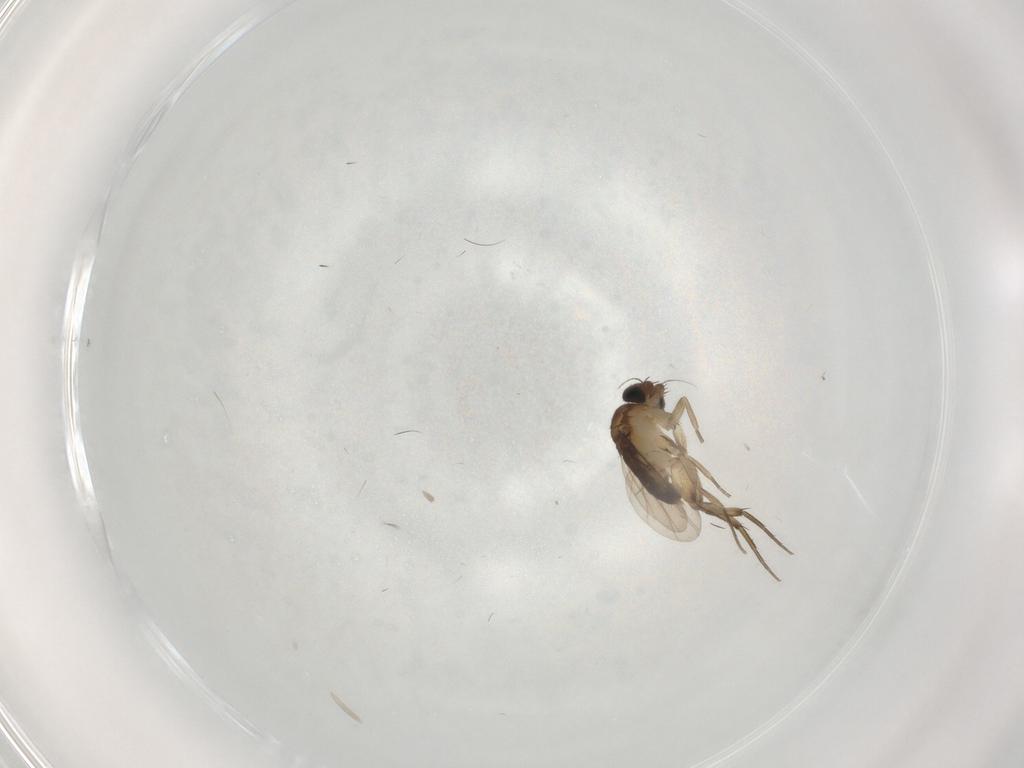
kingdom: Animalia
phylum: Arthropoda
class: Insecta
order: Diptera
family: Phoridae
